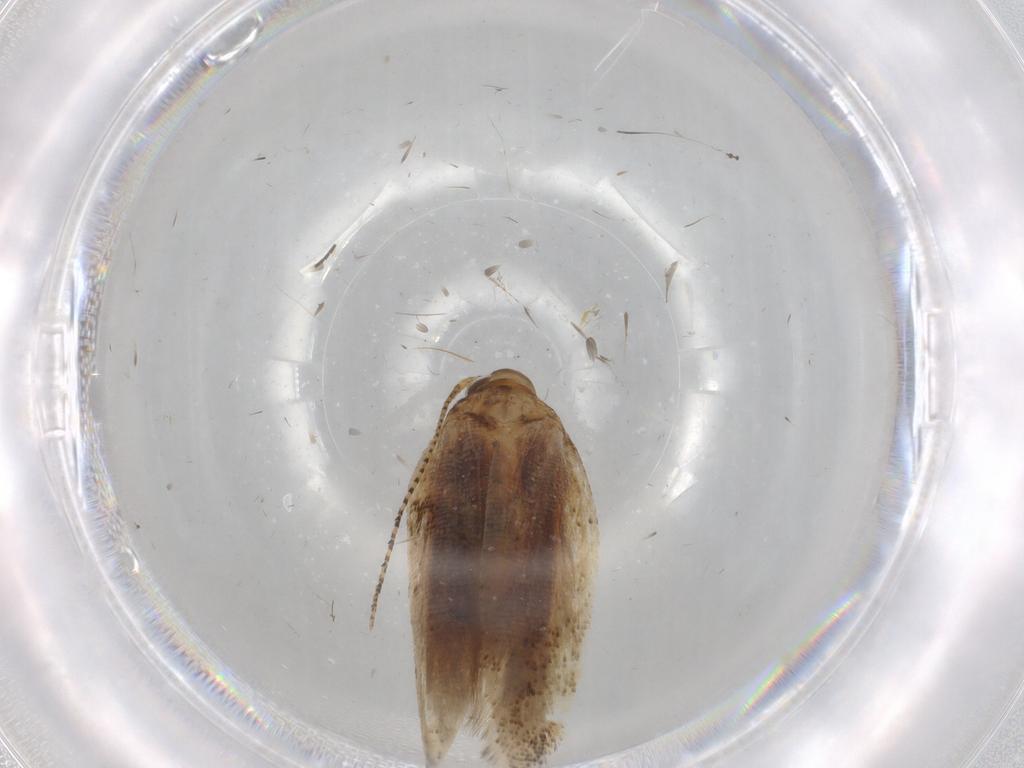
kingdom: Animalia
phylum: Arthropoda
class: Insecta
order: Lepidoptera
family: Gelechiidae
